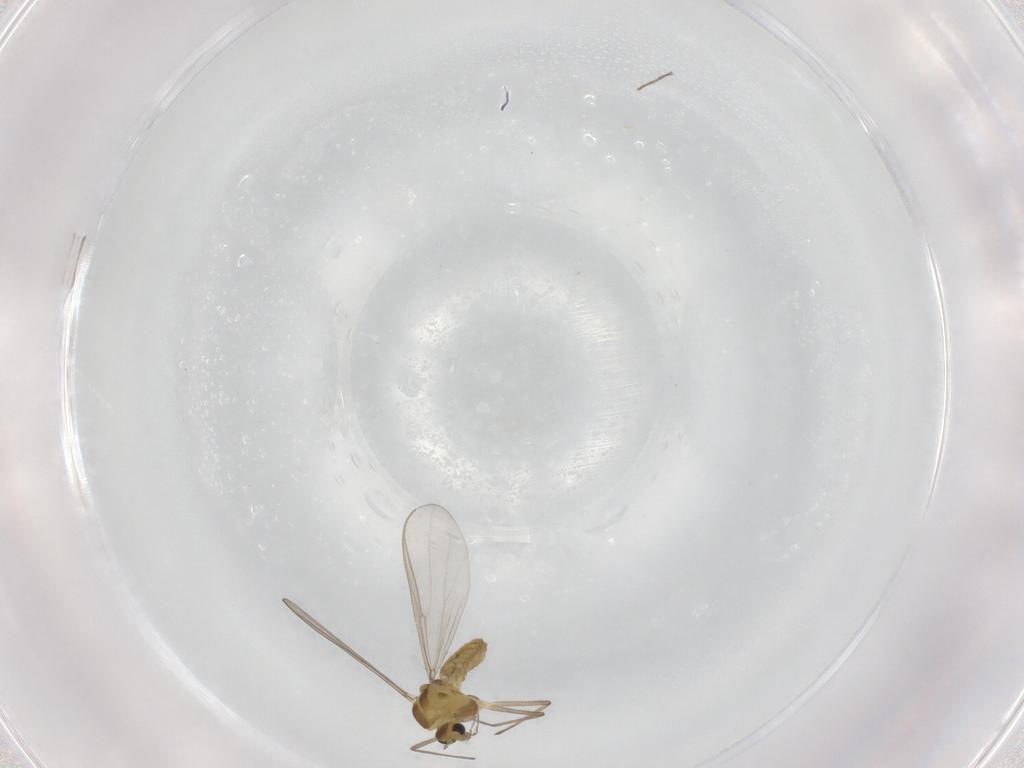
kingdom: Animalia
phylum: Arthropoda
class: Insecta
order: Diptera
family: Chironomidae
